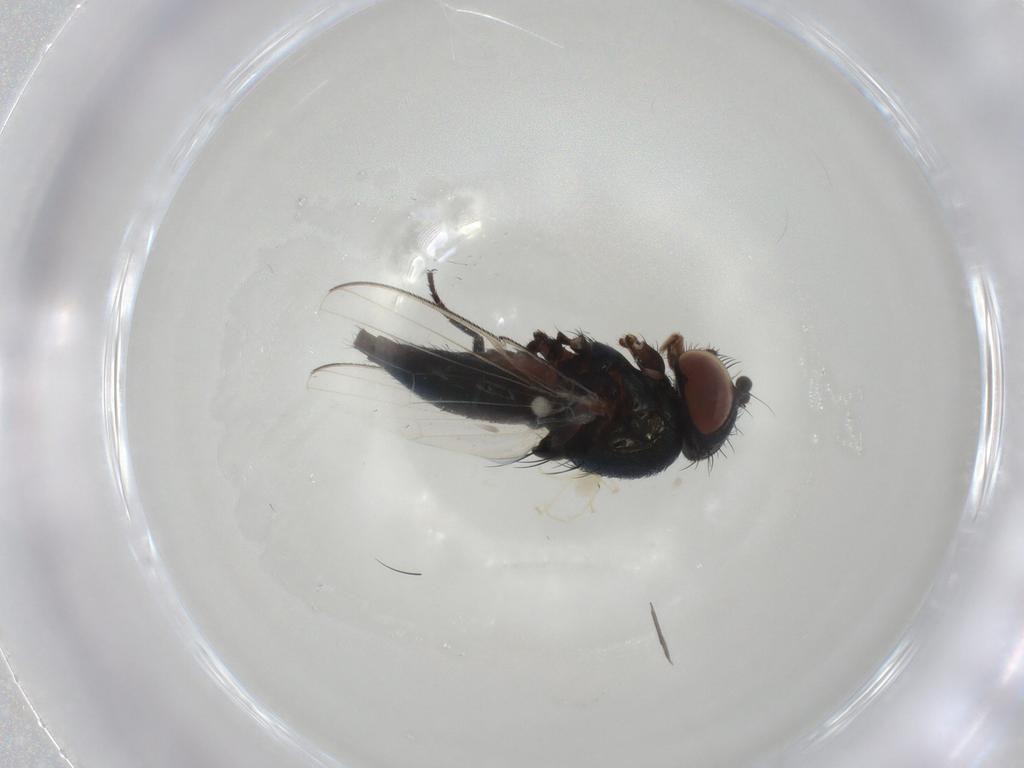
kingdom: Animalia
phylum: Arthropoda
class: Insecta
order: Diptera
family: Milichiidae
